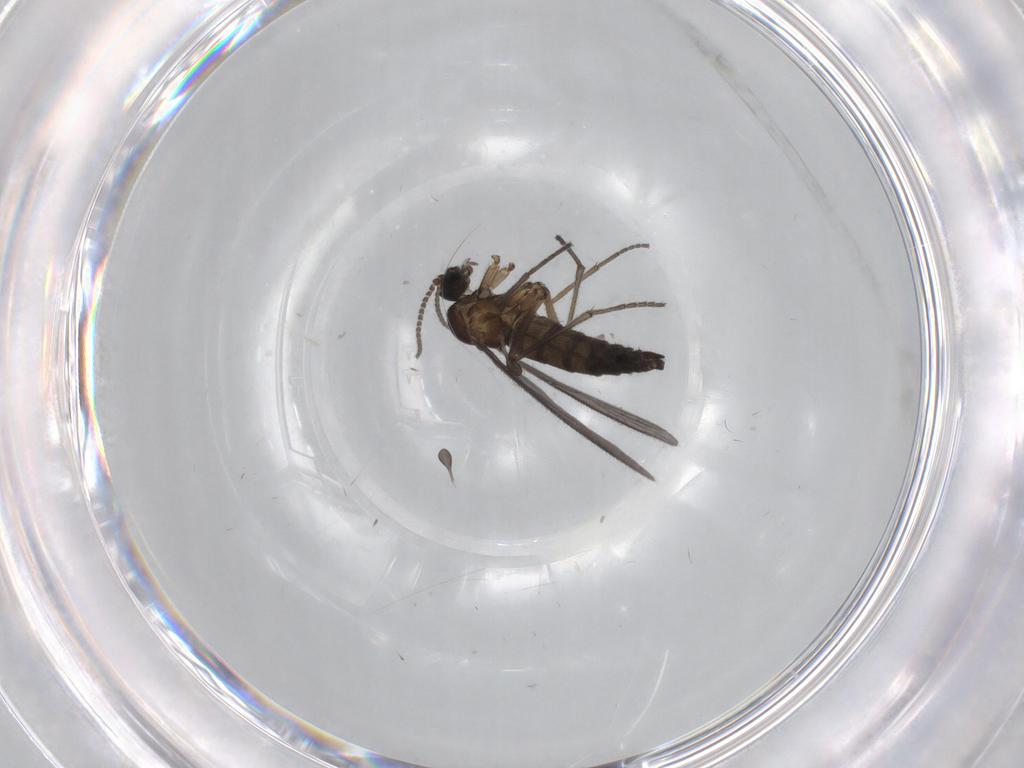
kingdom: Animalia
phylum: Arthropoda
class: Insecta
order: Diptera
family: Sciaridae
